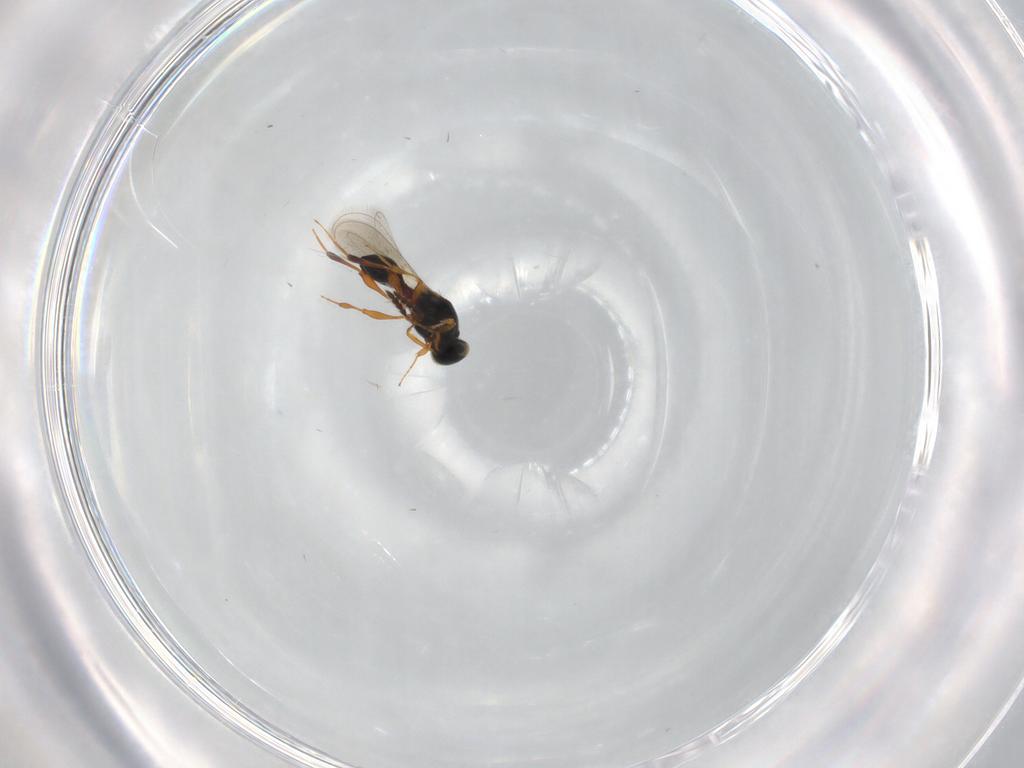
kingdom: Animalia
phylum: Arthropoda
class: Insecta
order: Hymenoptera
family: Platygastridae
